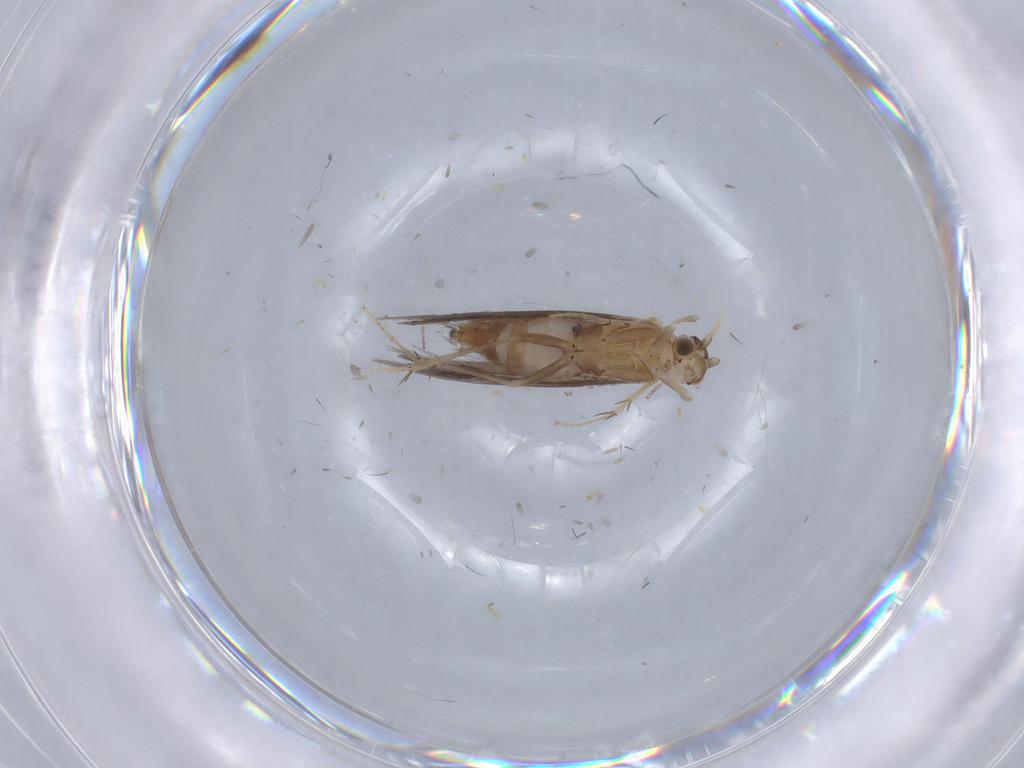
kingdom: Animalia
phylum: Arthropoda
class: Insecta
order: Trichoptera
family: Glossosomatidae
